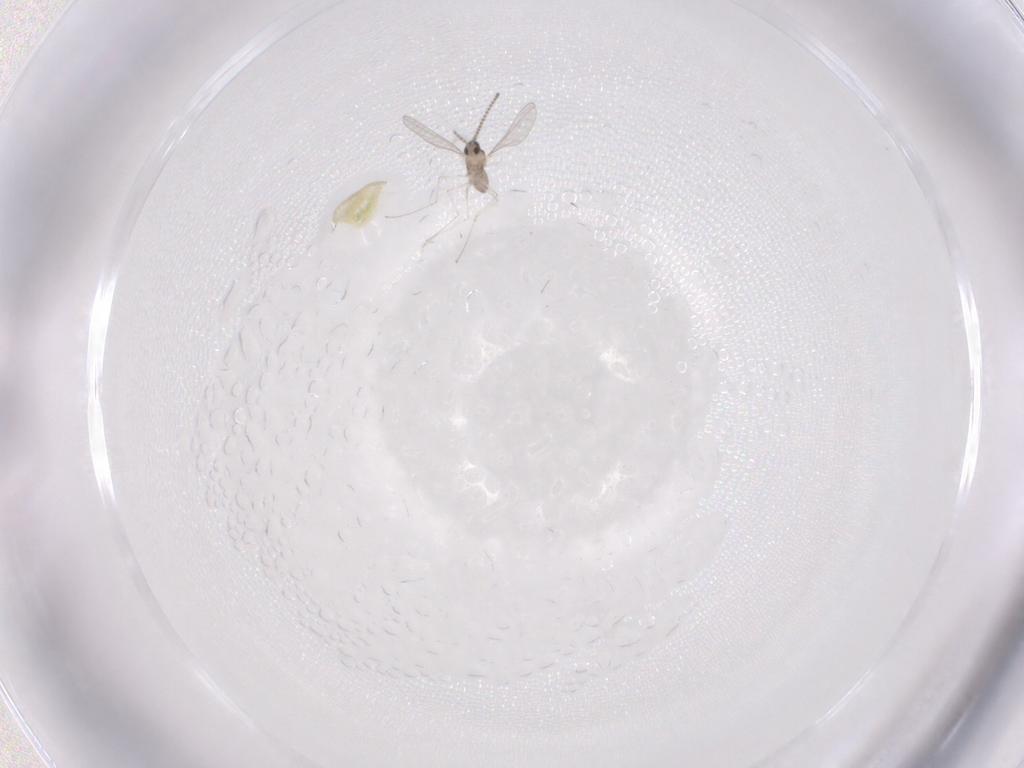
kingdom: Animalia
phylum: Arthropoda
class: Insecta
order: Diptera
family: Cecidomyiidae
